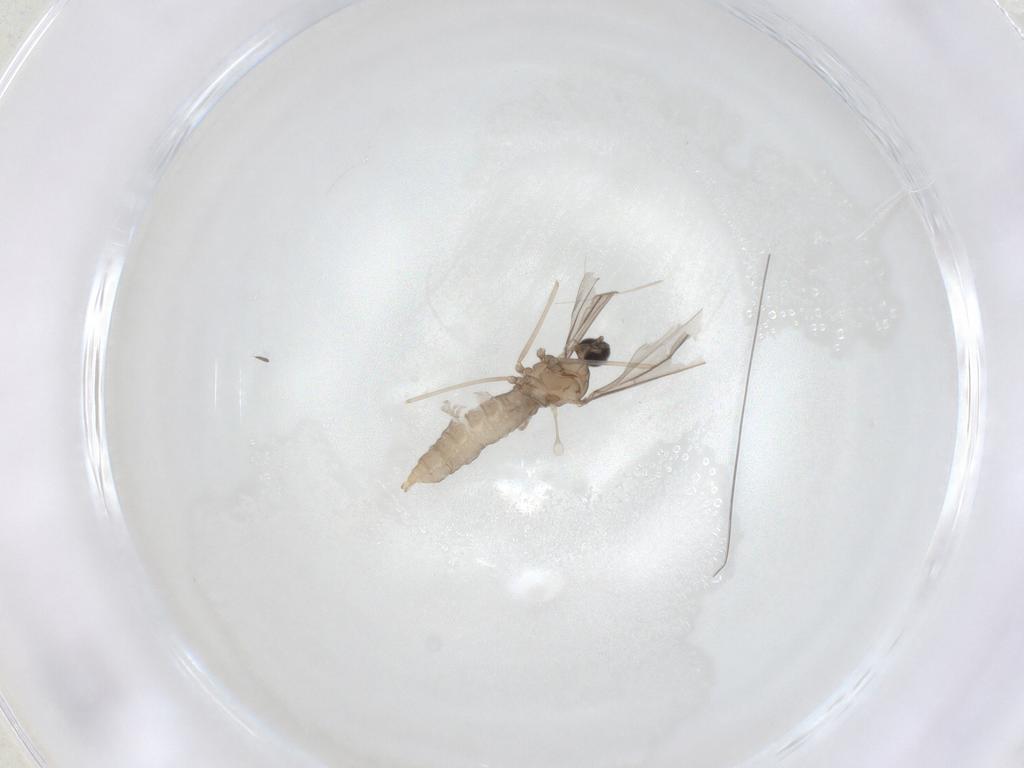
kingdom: Animalia
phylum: Arthropoda
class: Insecta
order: Diptera
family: Cecidomyiidae
